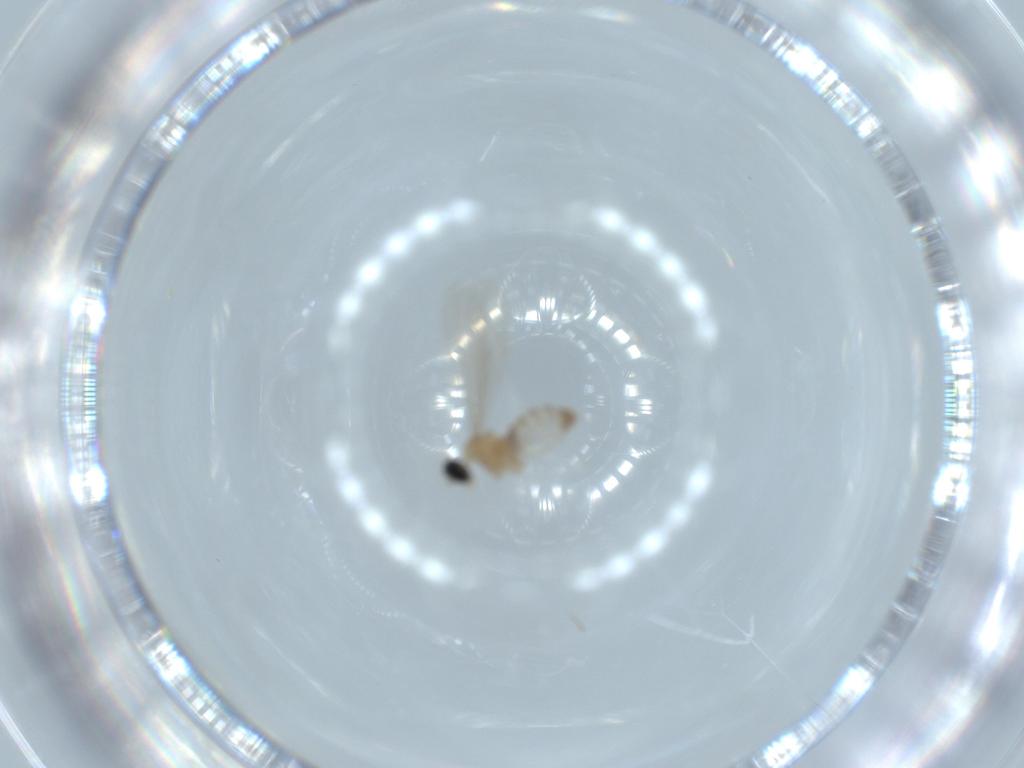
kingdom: Animalia
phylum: Arthropoda
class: Insecta
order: Diptera
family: Cecidomyiidae
